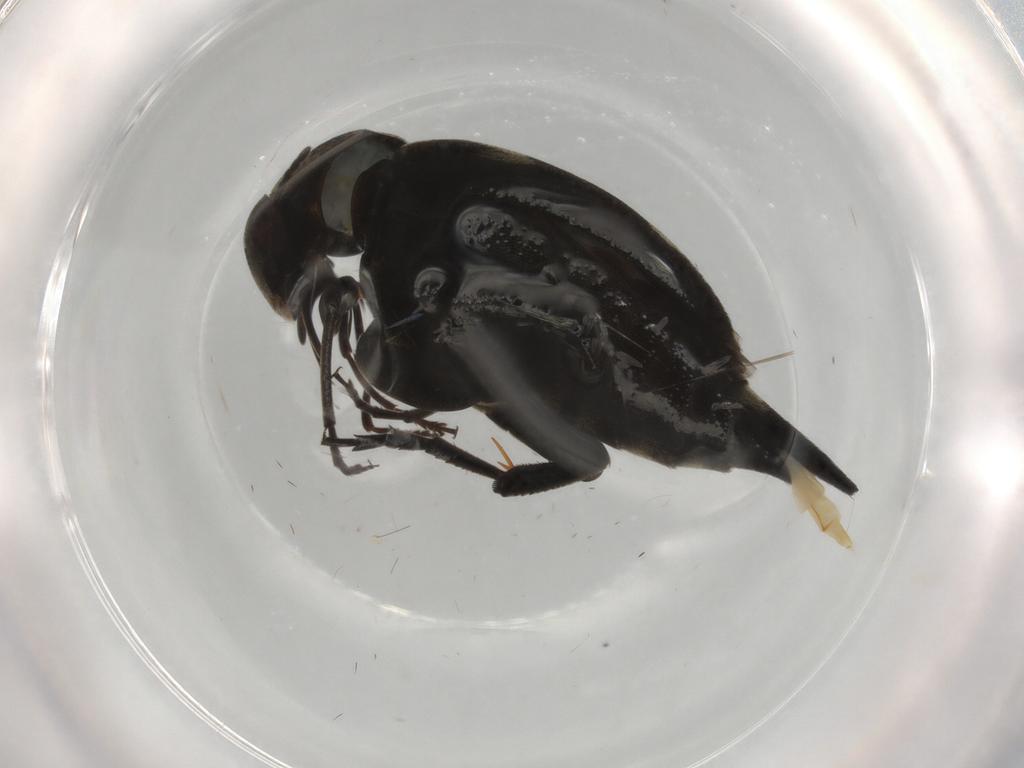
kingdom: Animalia
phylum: Arthropoda
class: Insecta
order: Coleoptera
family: Mordellidae
